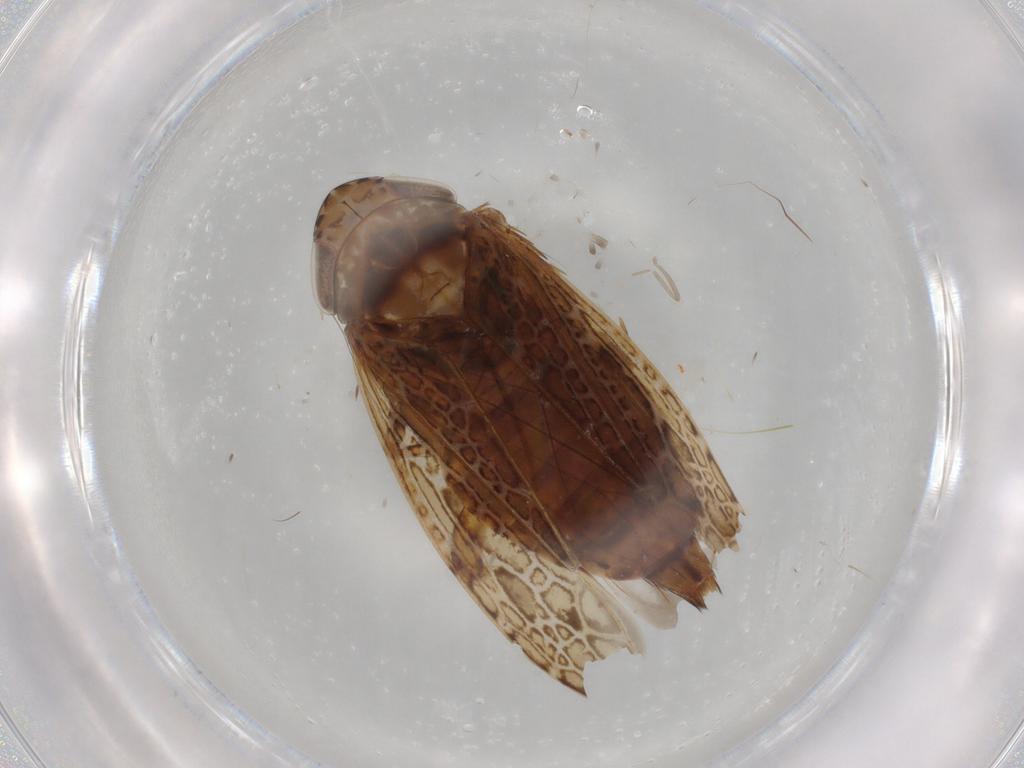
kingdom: Animalia
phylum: Arthropoda
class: Insecta
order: Hemiptera
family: Cicadellidae
